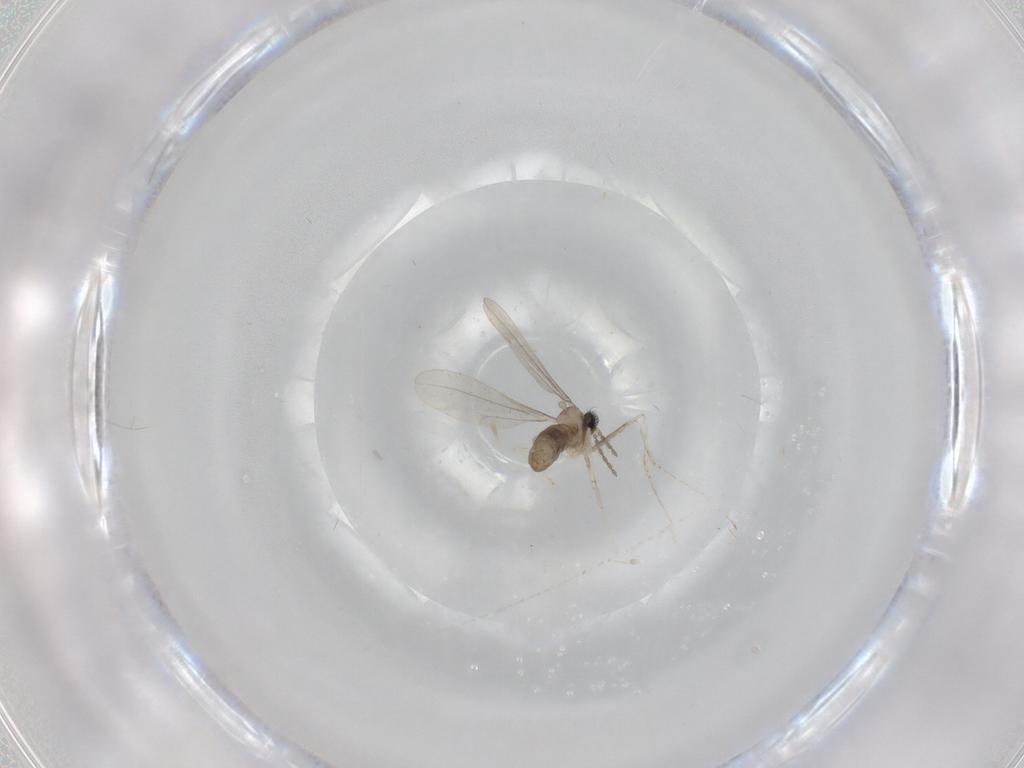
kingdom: Animalia
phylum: Arthropoda
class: Insecta
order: Diptera
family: Cecidomyiidae
